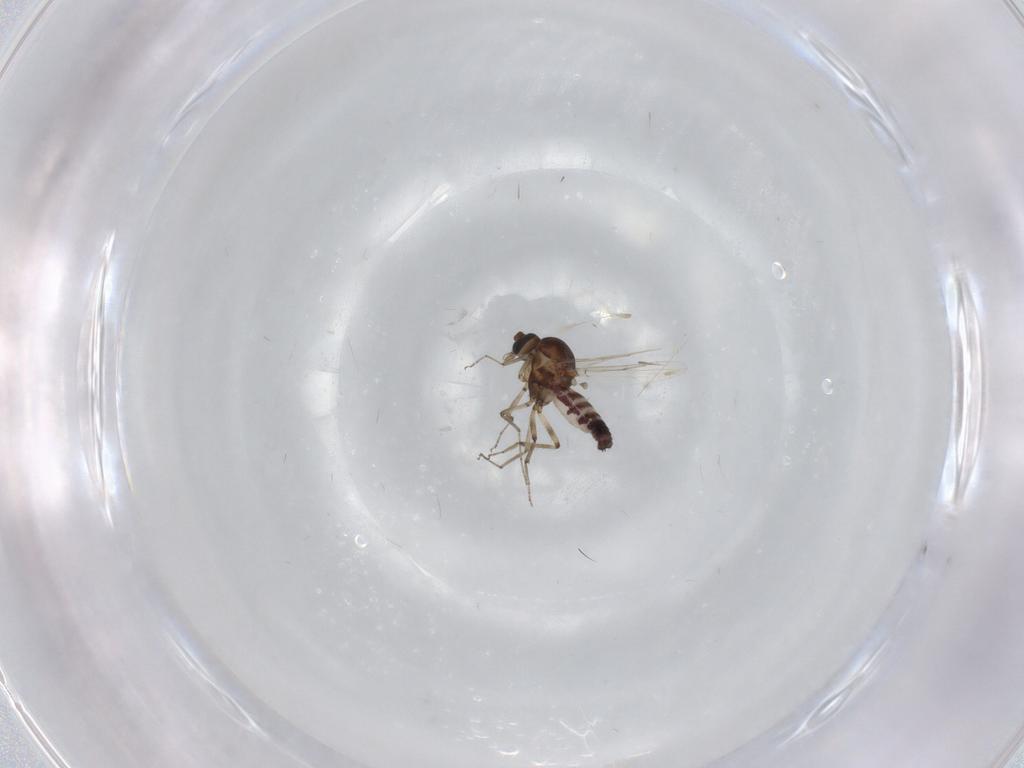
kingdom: Animalia
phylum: Arthropoda
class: Insecta
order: Diptera
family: Ceratopogonidae
